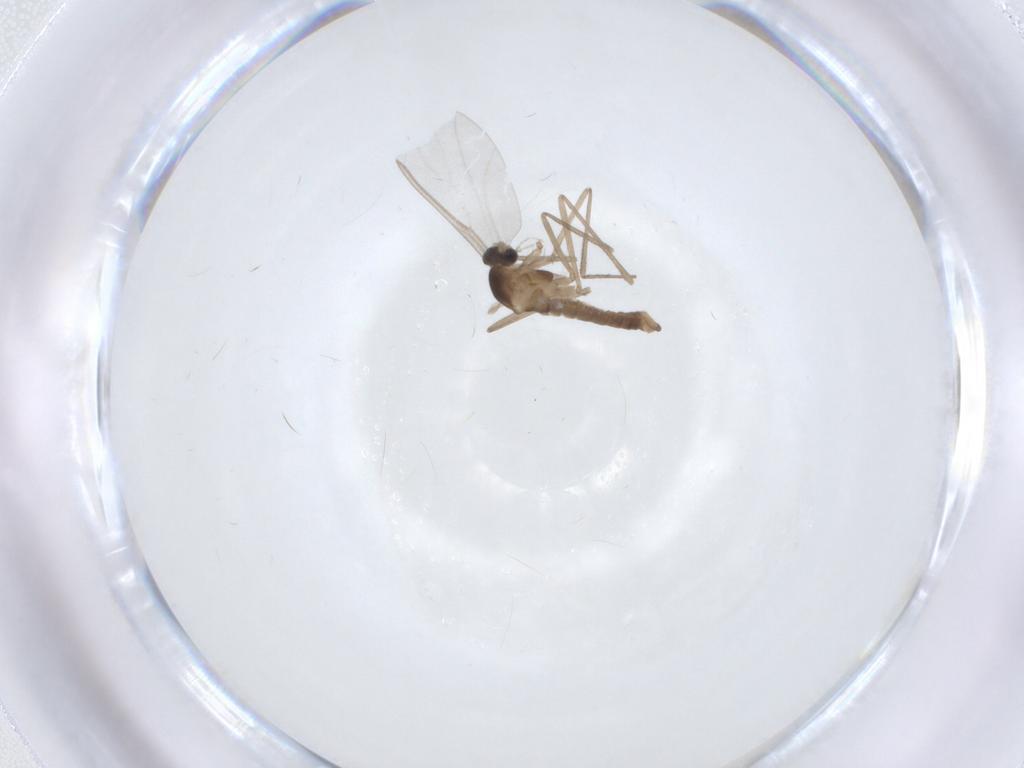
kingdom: Animalia
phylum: Arthropoda
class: Insecta
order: Diptera
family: Cecidomyiidae
